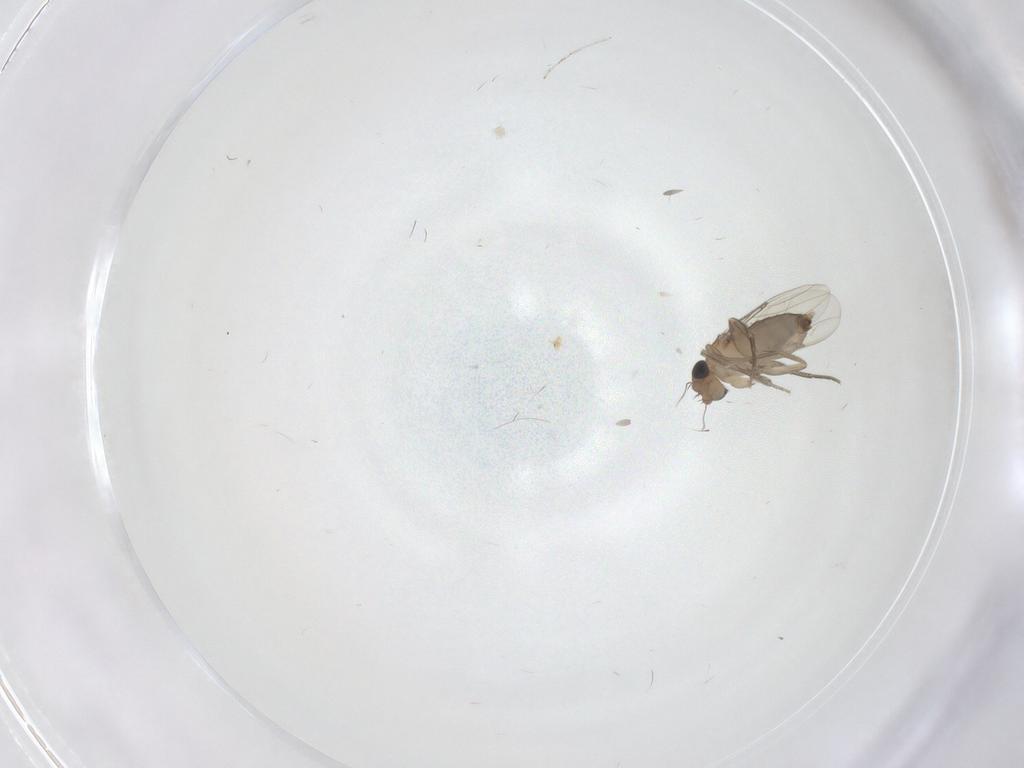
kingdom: Animalia
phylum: Arthropoda
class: Insecta
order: Diptera
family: Phoridae
